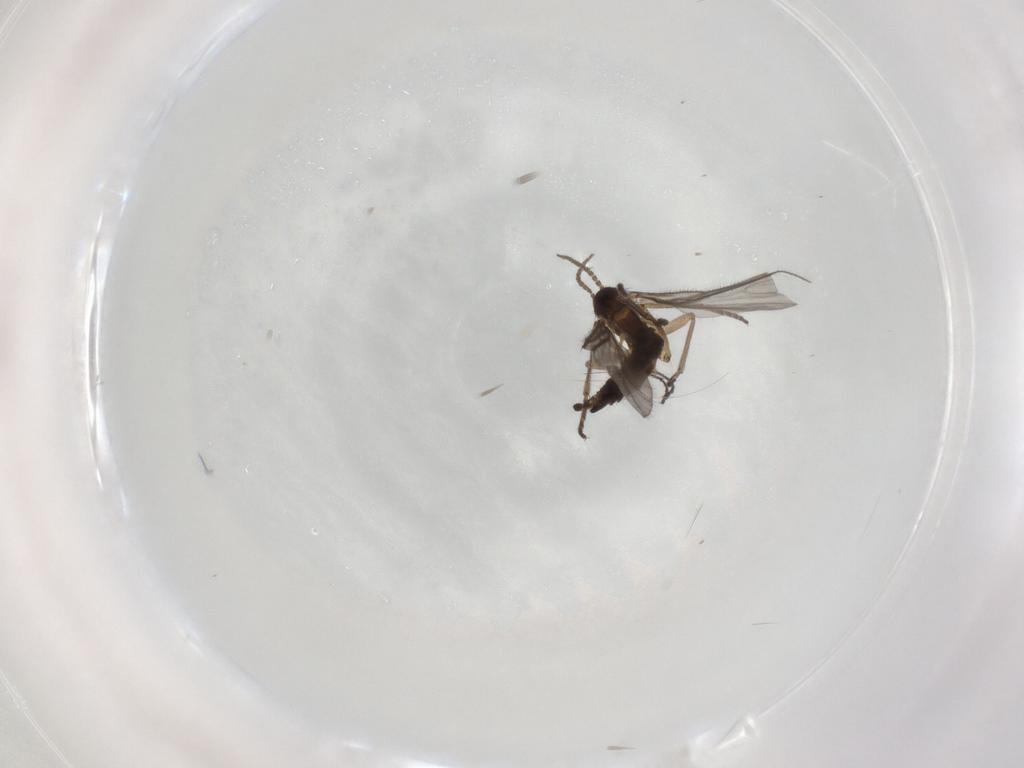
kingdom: Animalia
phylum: Arthropoda
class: Insecta
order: Diptera
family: Sciaridae
